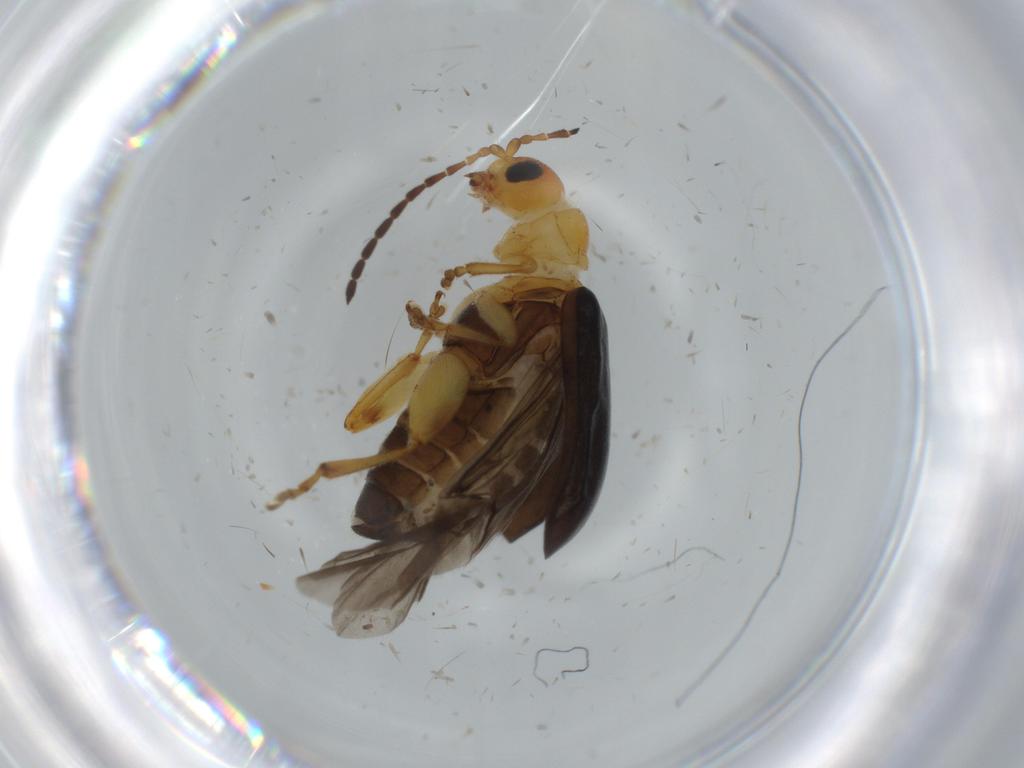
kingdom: Animalia
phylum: Arthropoda
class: Insecta
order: Coleoptera
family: Chrysomelidae
